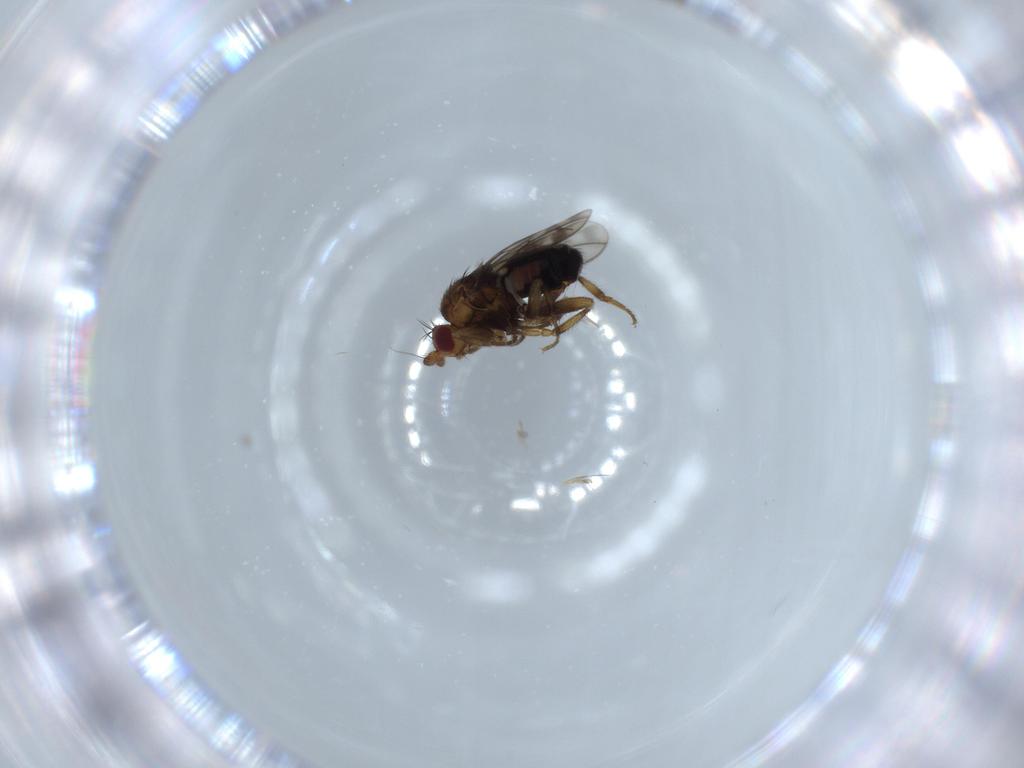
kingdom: Animalia
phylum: Arthropoda
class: Insecta
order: Diptera
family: Sphaeroceridae
